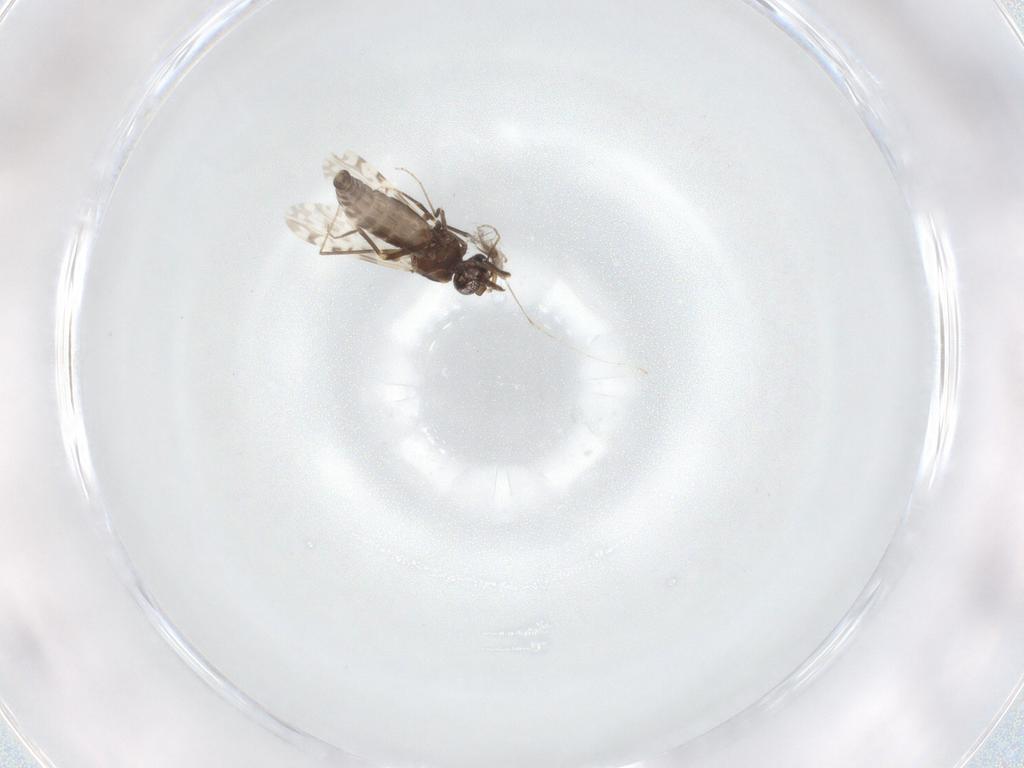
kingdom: Animalia
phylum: Arthropoda
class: Insecta
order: Diptera
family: Ceratopogonidae
